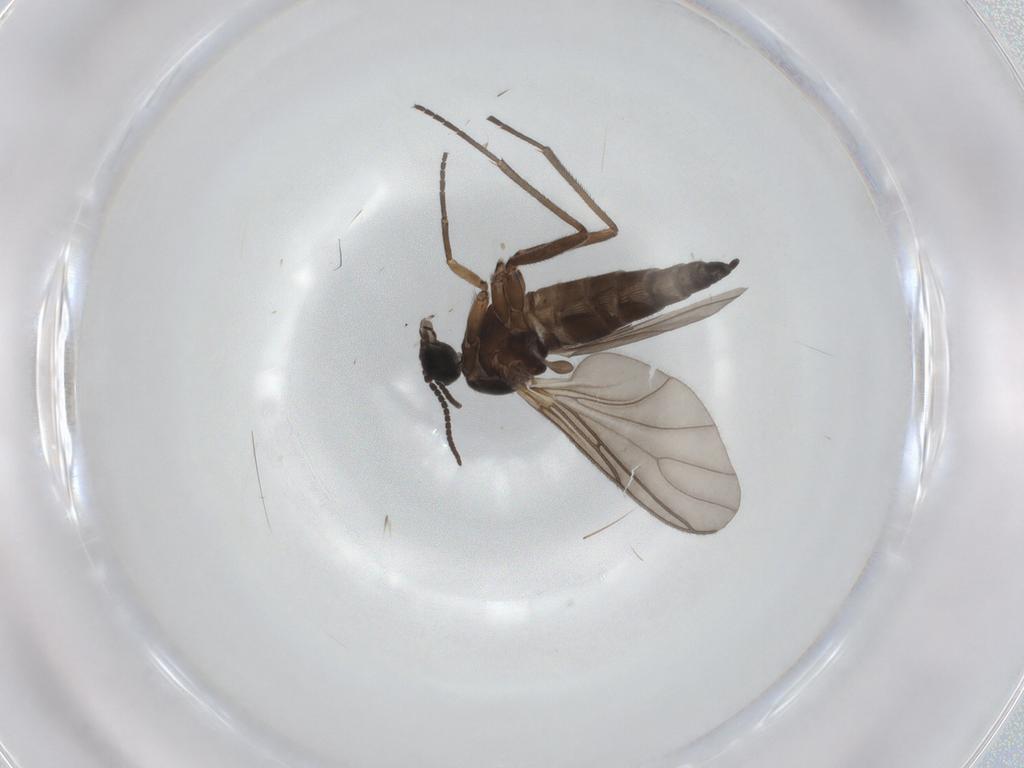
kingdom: Animalia
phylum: Arthropoda
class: Insecta
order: Diptera
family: Sciaridae
